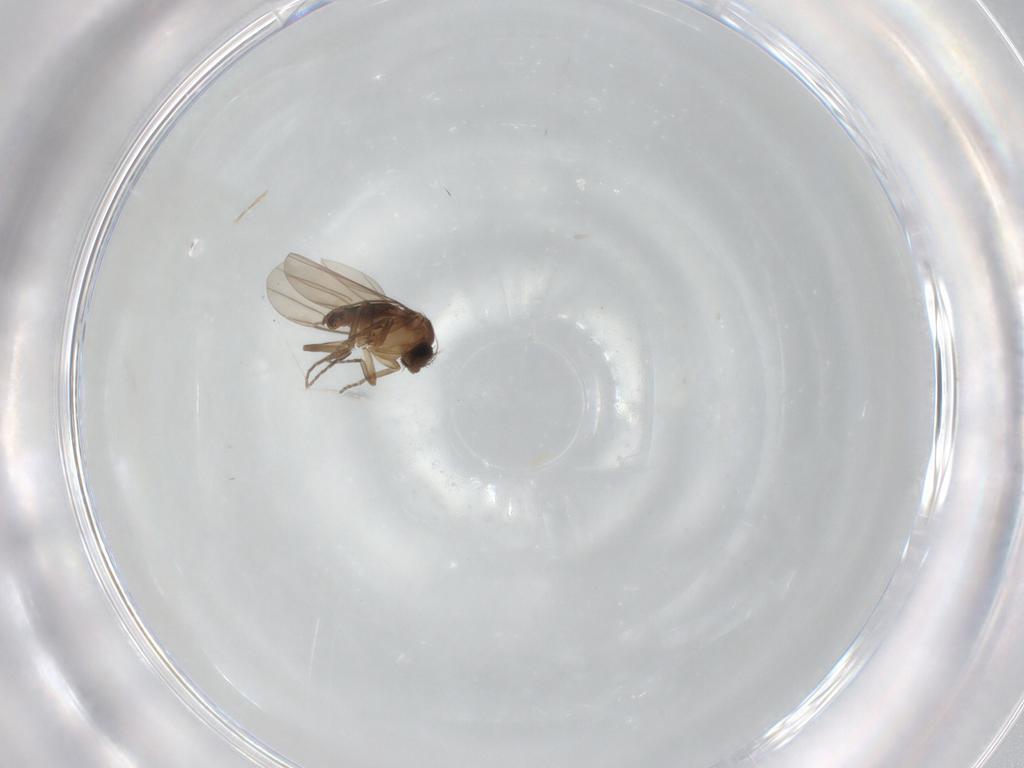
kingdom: Animalia
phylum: Arthropoda
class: Insecta
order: Diptera
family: Phoridae
